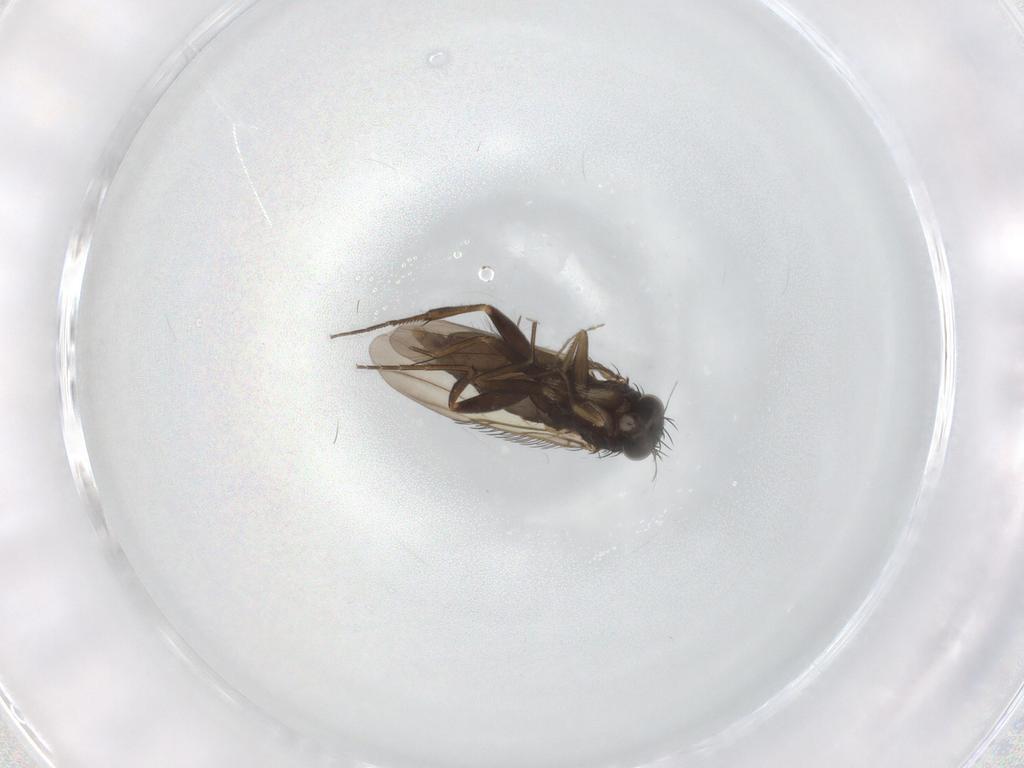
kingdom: Animalia
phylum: Arthropoda
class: Insecta
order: Diptera
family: Phoridae
